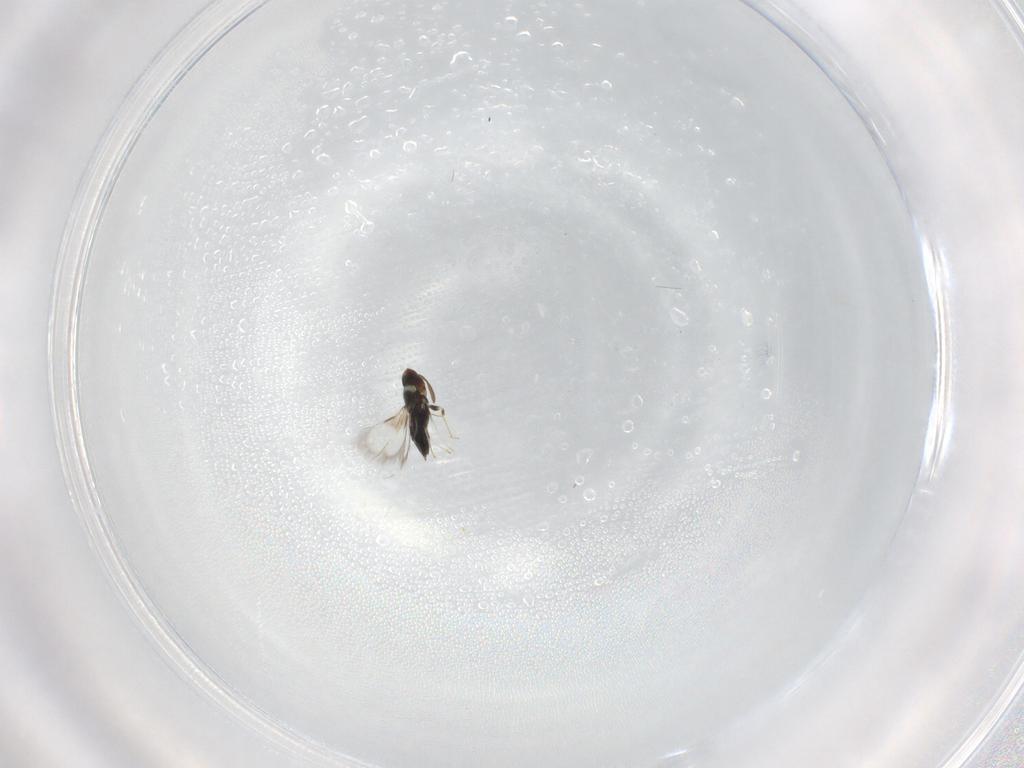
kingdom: Animalia
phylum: Arthropoda
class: Insecta
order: Hymenoptera
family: Signiphoridae
